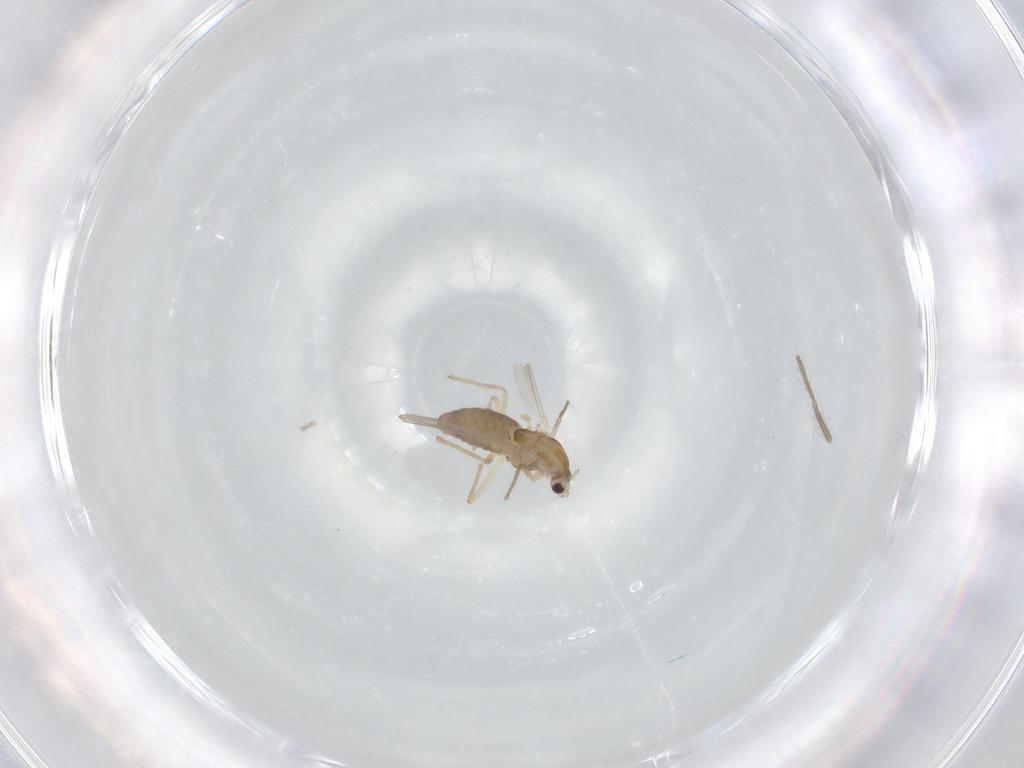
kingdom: Animalia
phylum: Arthropoda
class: Insecta
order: Diptera
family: Chironomidae
